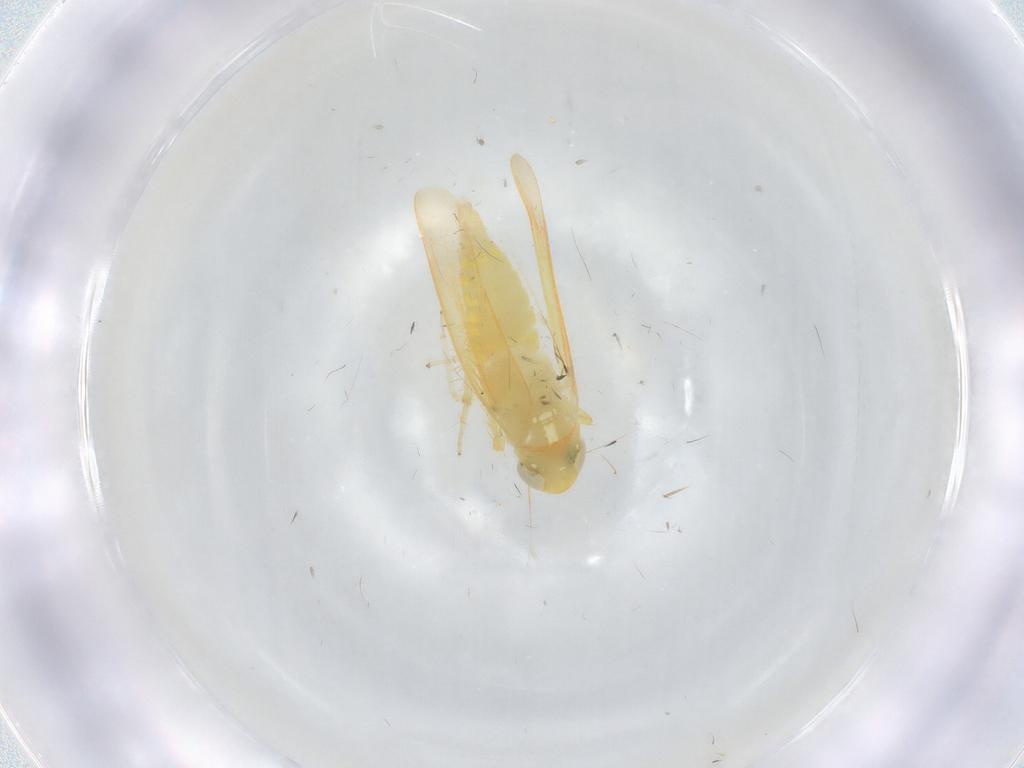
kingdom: Animalia
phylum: Arthropoda
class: Insecta
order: Hemiptera
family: Cicadellidae
